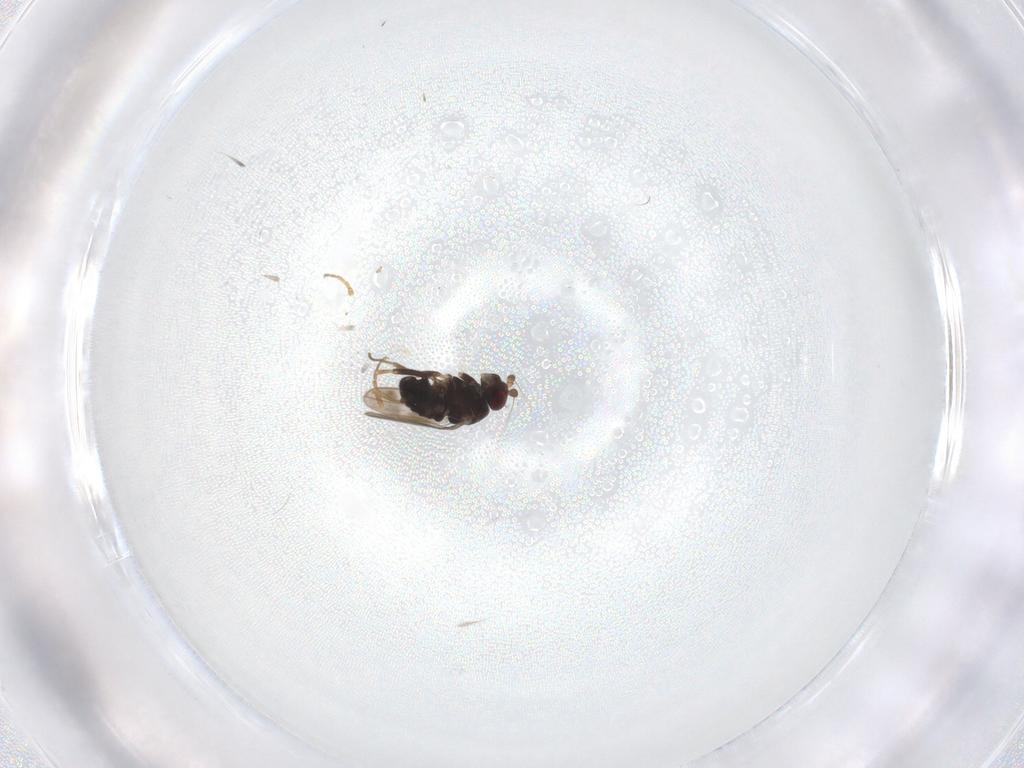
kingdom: Animalia
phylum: Arthropoda
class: Insecta
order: Diptera
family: Sphaeroceridae
